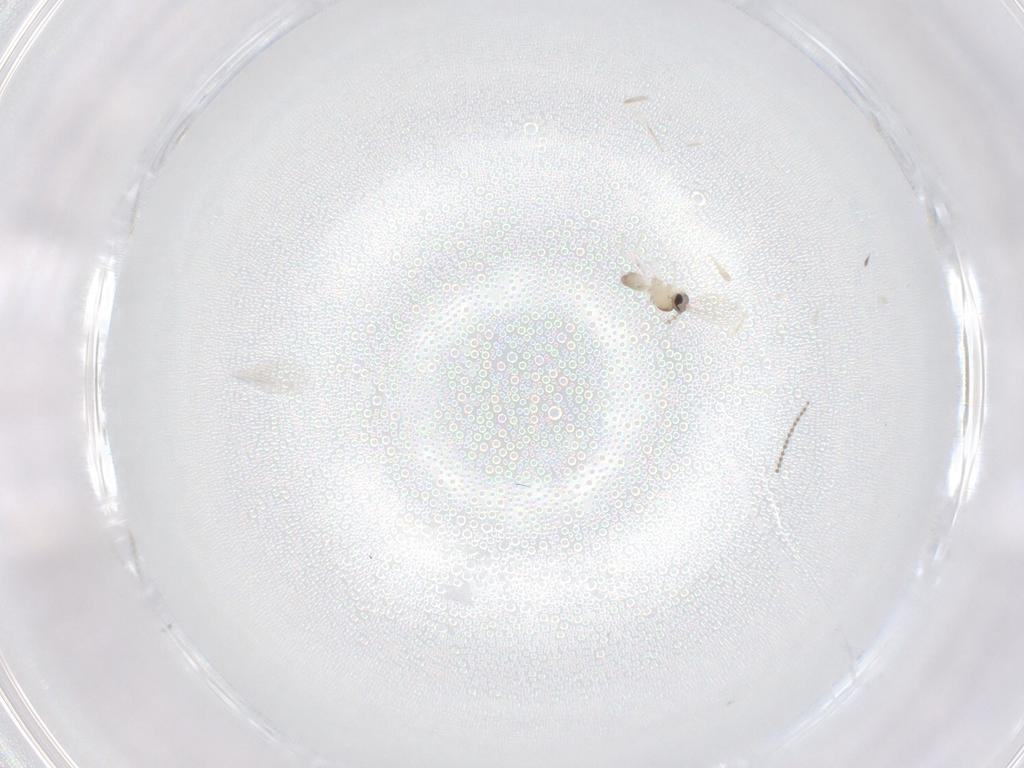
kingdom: Animalia
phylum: Arthropoda
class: Insecta
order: Diptera
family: Cecidomyiidae
